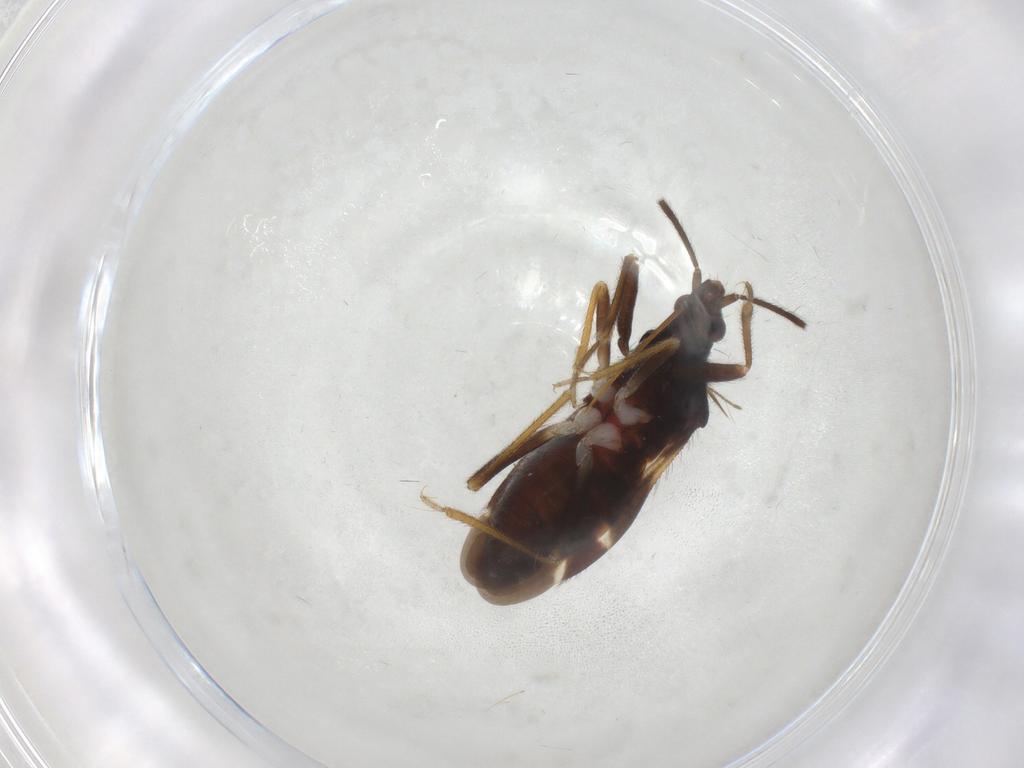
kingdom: Animalia
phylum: Arthropoda
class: Insecta
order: Hemiptera
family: Anthocoridae
